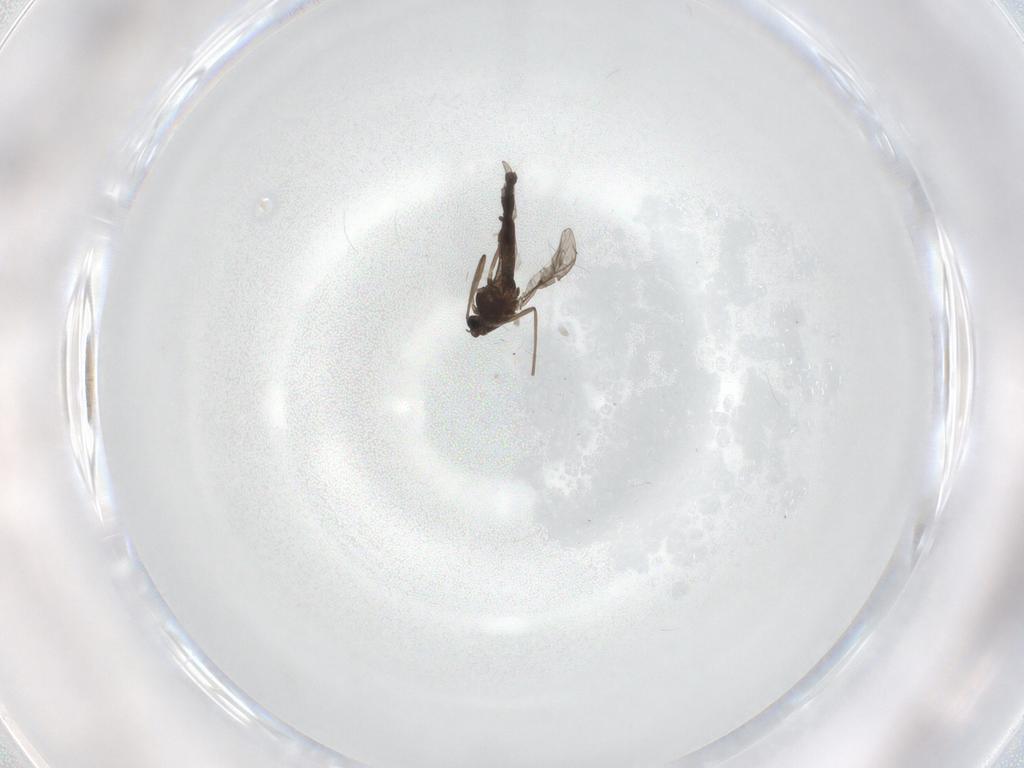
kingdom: Animalia
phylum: Arthropoda
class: Insecta
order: Diptera
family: Chironomidae
